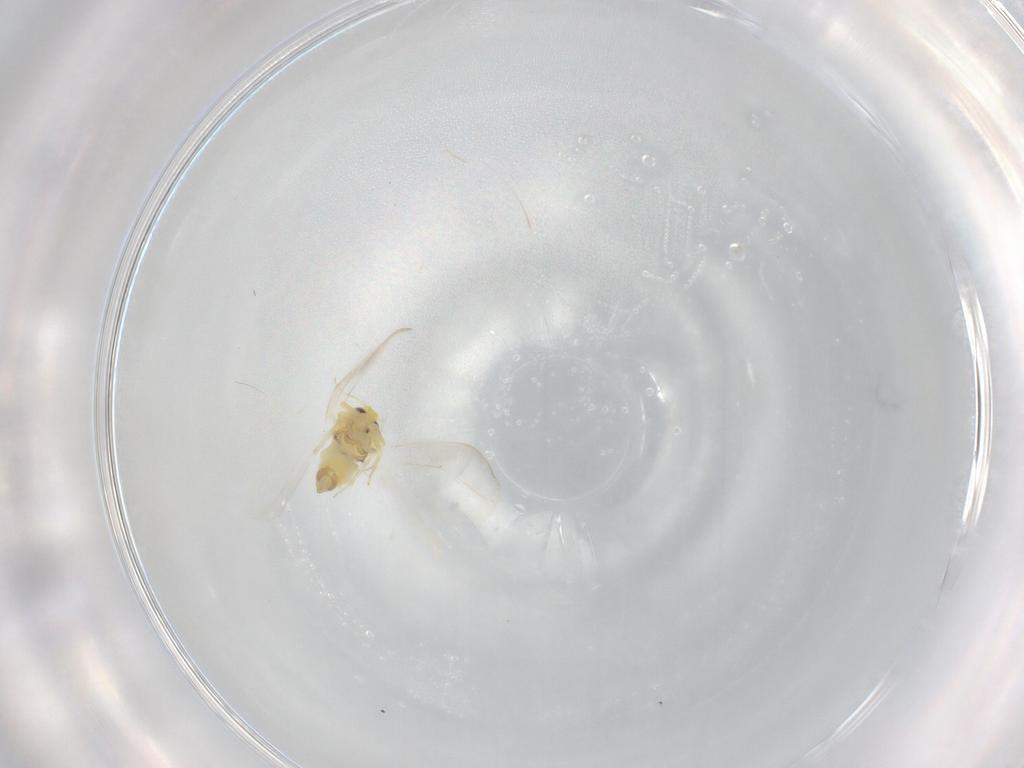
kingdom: Animalia
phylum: Arthropoda
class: Insecta
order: Hemiptera
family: Aleyrodidae
